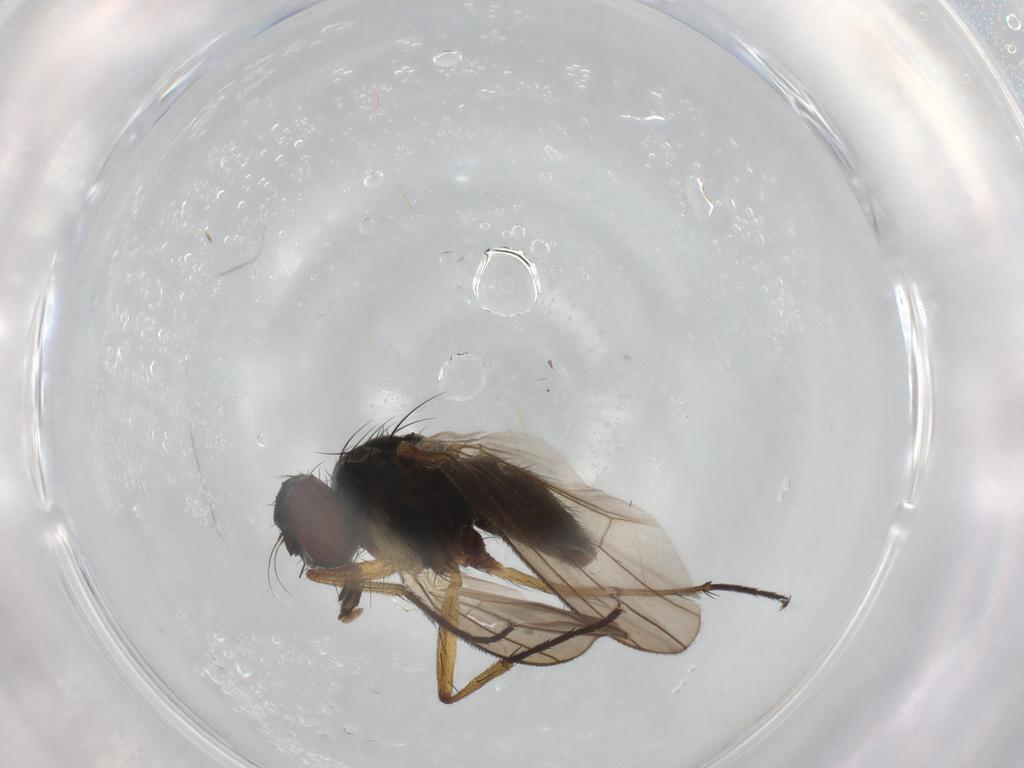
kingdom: Animalia
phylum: Arthropoda
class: Insecta
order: Diptera
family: Muscidae
